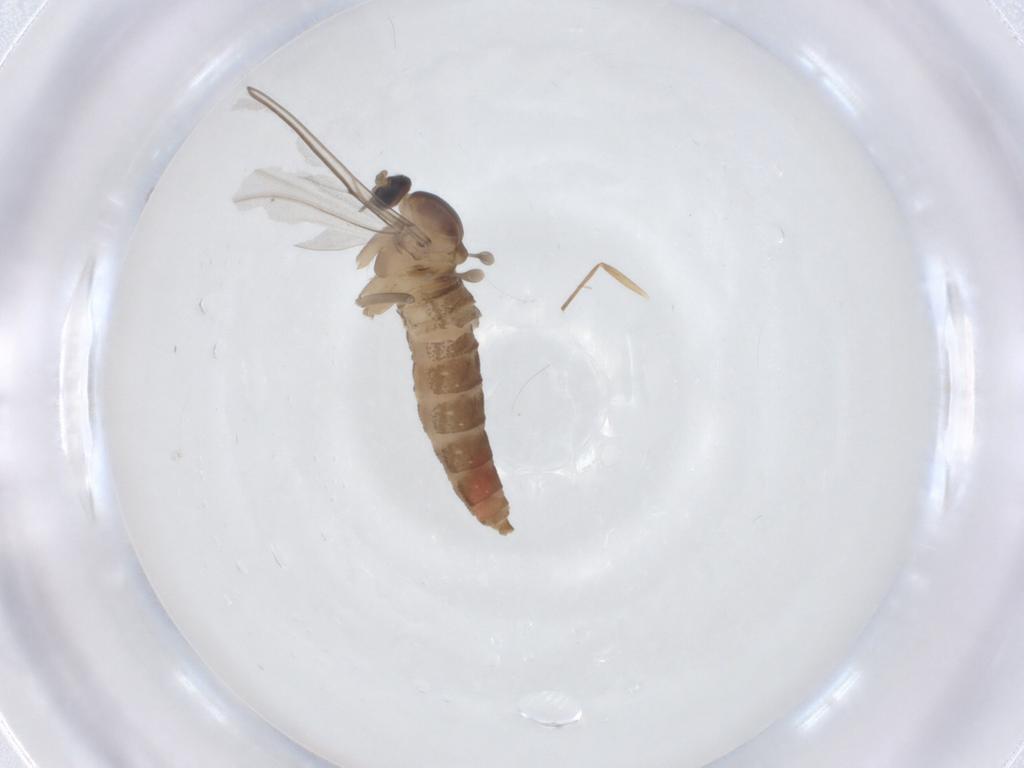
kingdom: Animalia
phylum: Arthropoda
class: Insecta
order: Diptera
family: Cecidomyiidae
